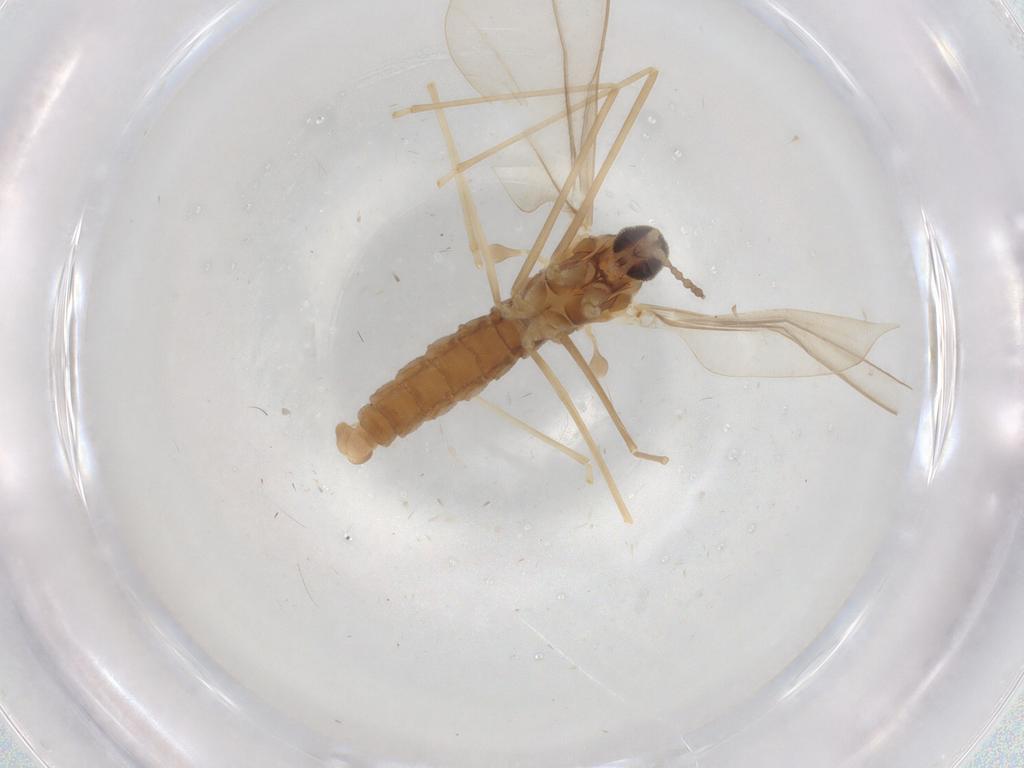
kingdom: Animalia
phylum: Arthropoda
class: Insecta
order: Diptera
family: Cecidomyiidae
